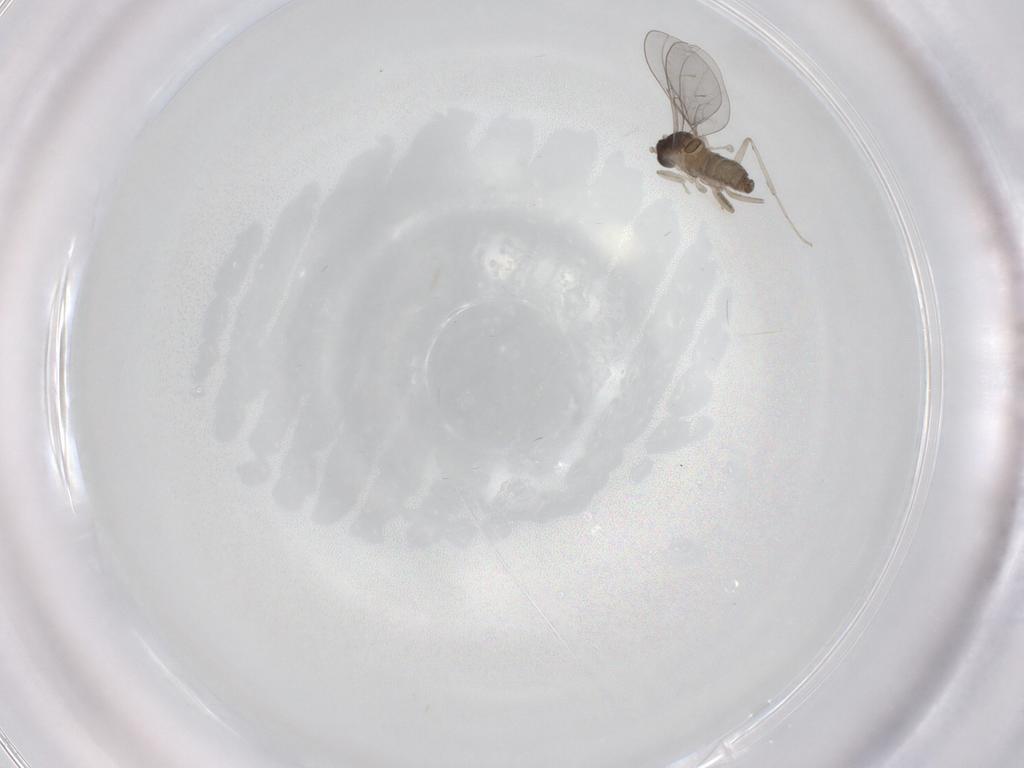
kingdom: Animalia
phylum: Arthropoda
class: Insecta
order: Diptera
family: Cecidomyiidae
